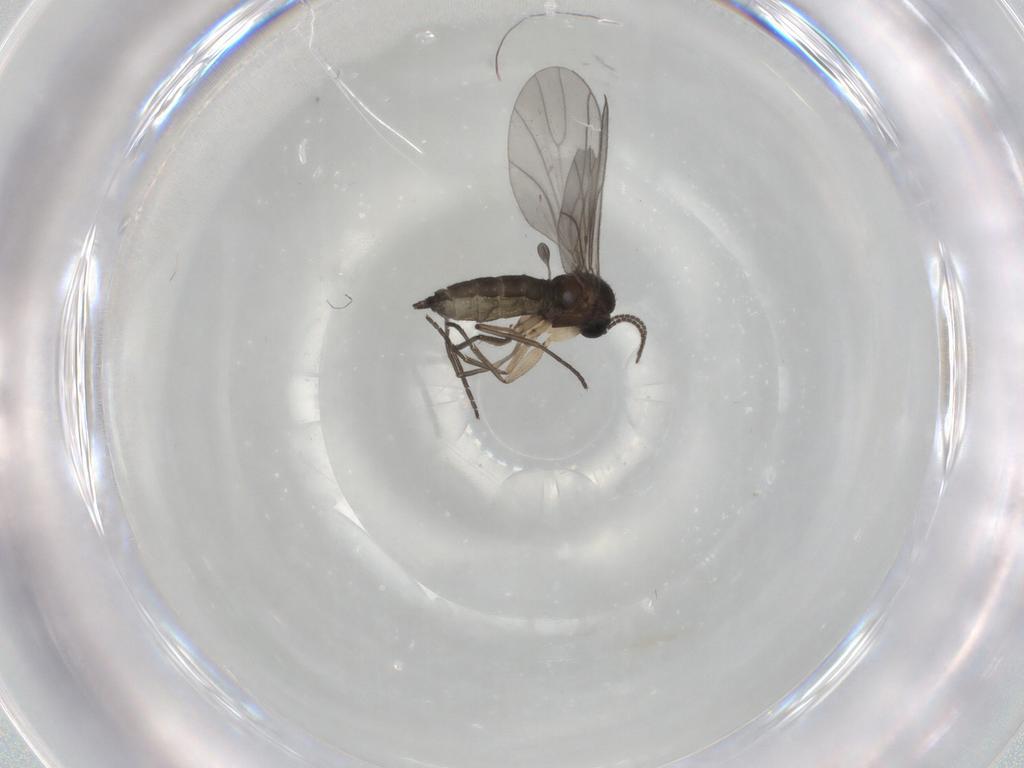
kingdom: Animalia
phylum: Arthropoda
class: Insecta
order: Diptera
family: Sciaridae
